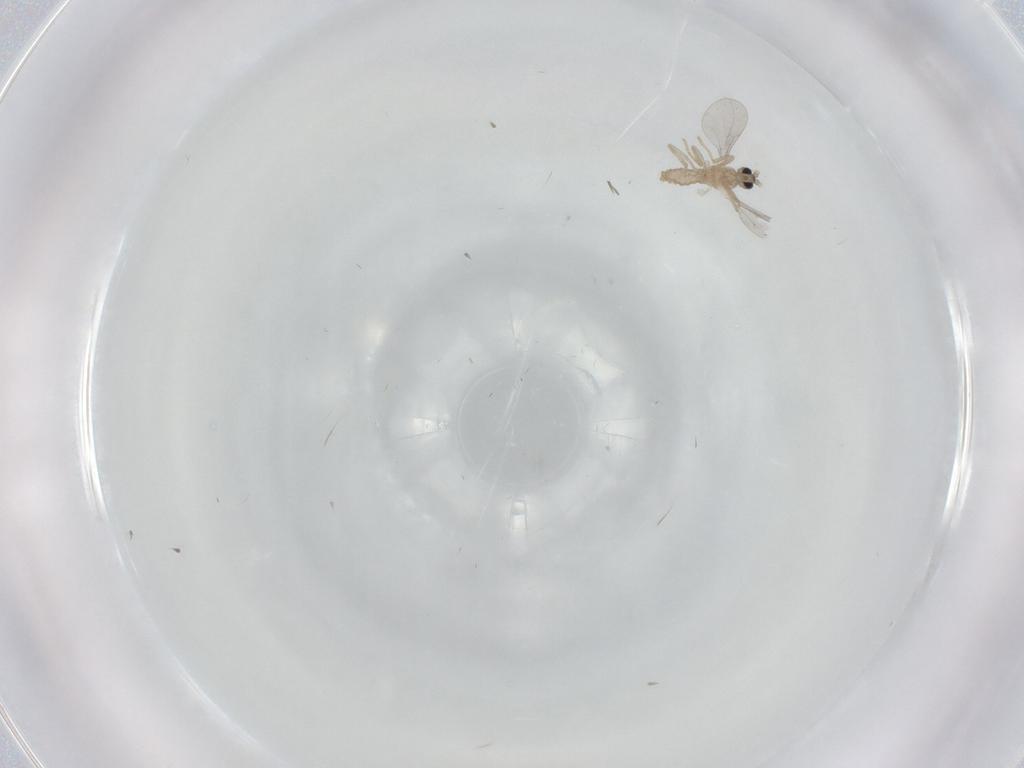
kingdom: Animalia
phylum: Arthropoda
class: Insecta
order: Diptera
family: Cecidomyiidae
